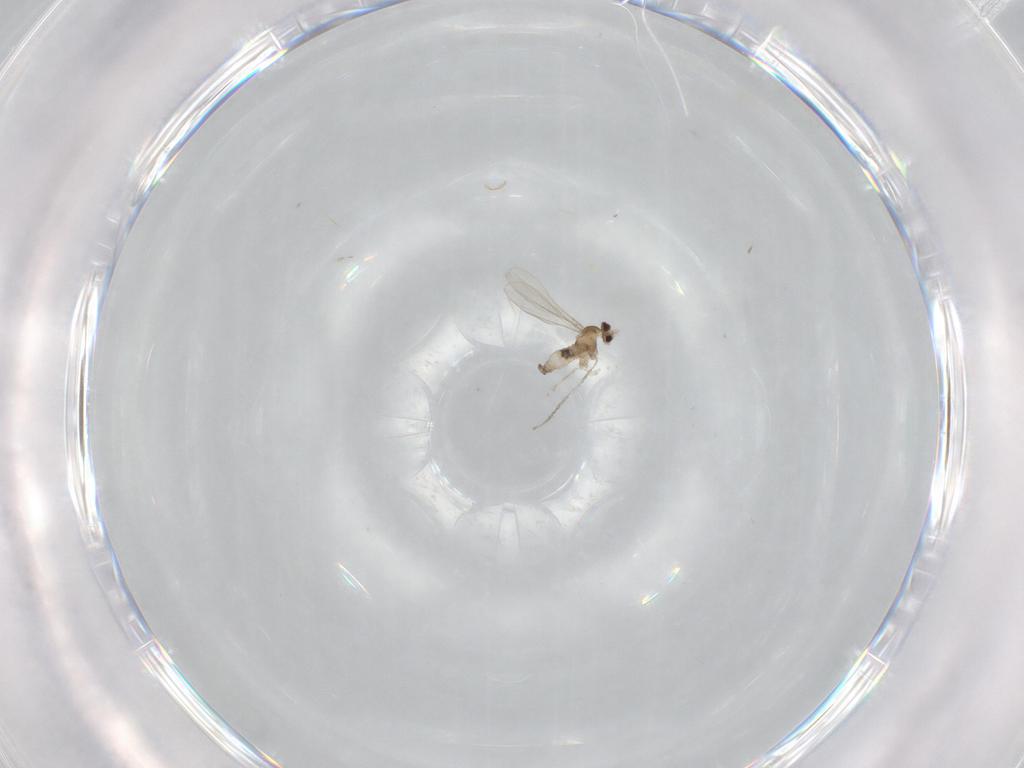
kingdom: Animalia
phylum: Arthropoda
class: Insecta
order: Diptera
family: Cecidomyiidae
